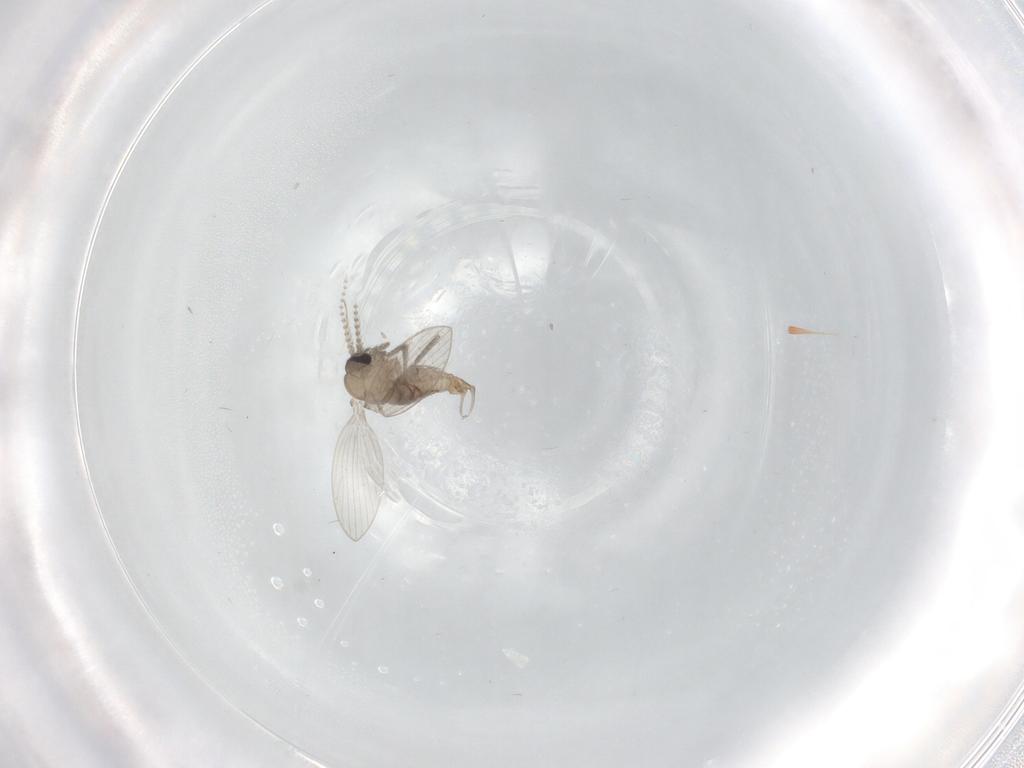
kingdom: Animalia
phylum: Arthropoda
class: Insecta
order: Diptera
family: Psychodidae
